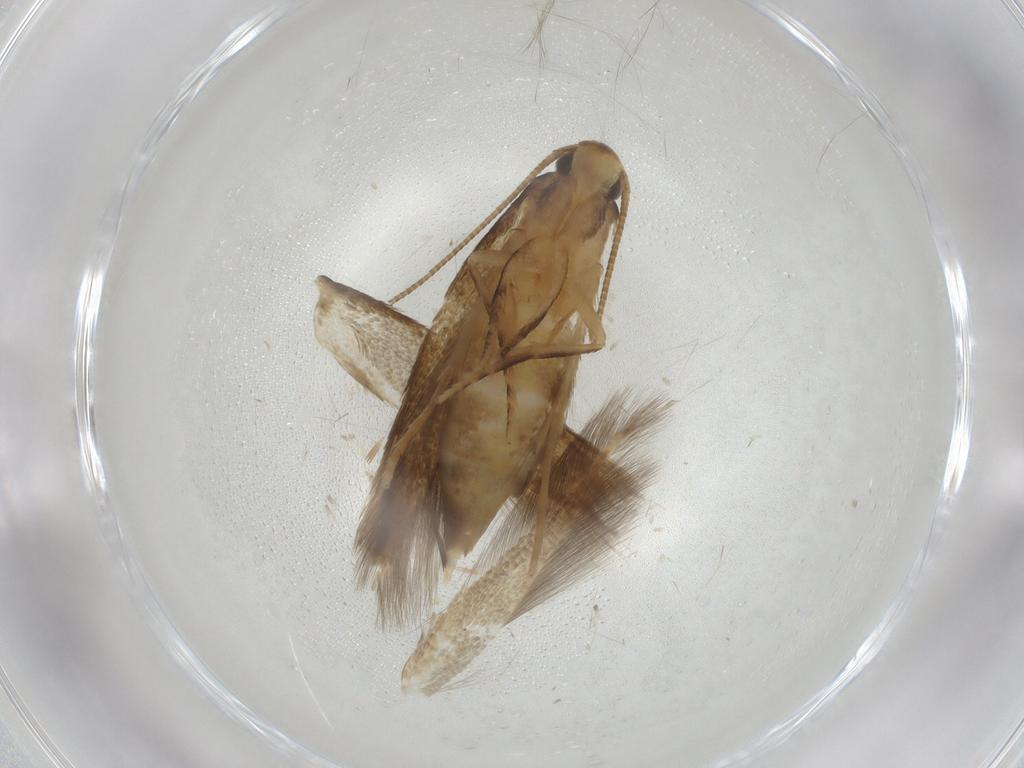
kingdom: Animalia
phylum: Arthropoda
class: Insecta
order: Lepidoptera
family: Tineidae
